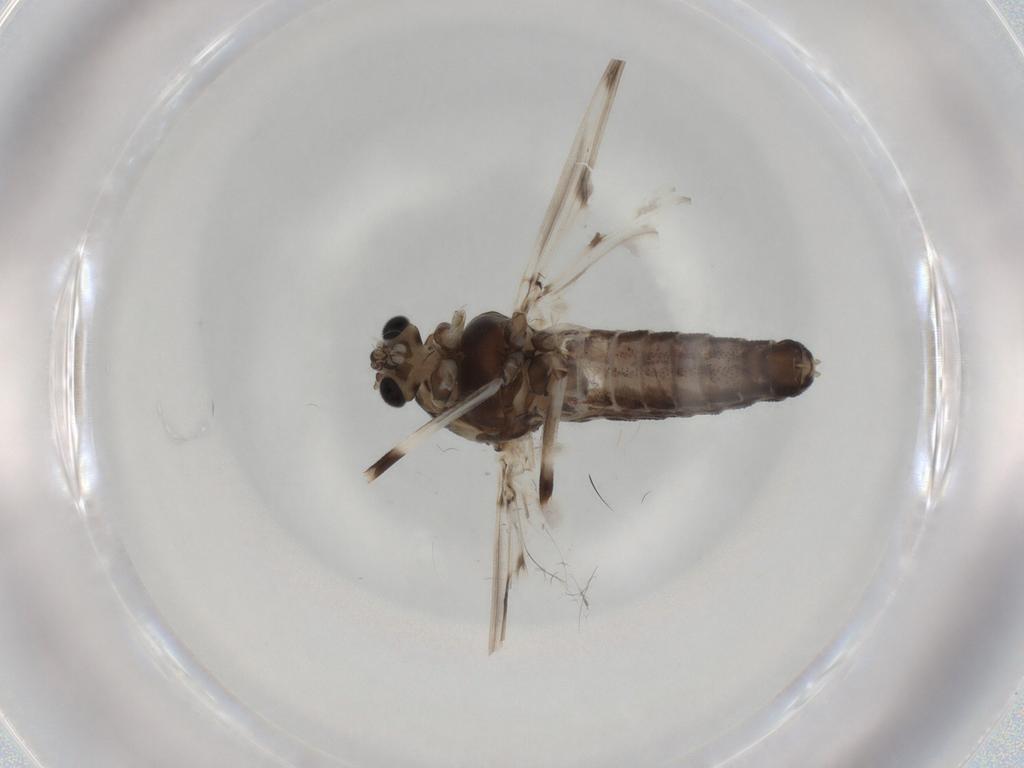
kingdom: Animalia
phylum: Arthropoda
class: Insecta
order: Diptera
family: Chironomidae
